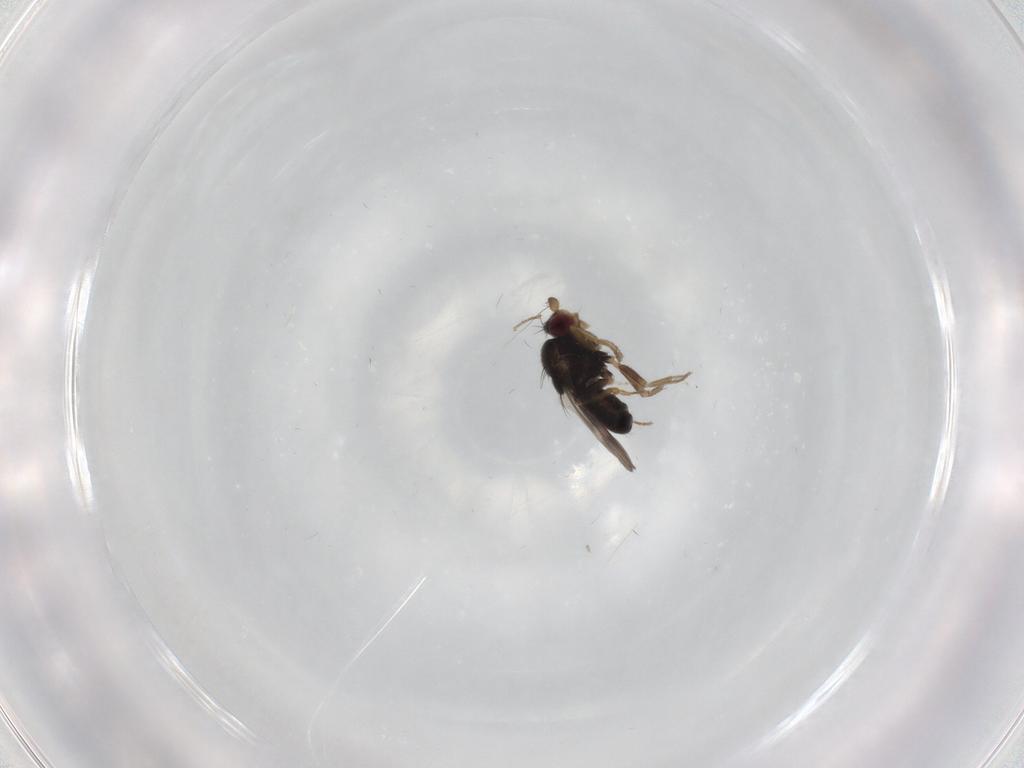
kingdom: Animalia
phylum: Arthropoda
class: Insecta
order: Diptera
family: Sphaeroceridae
